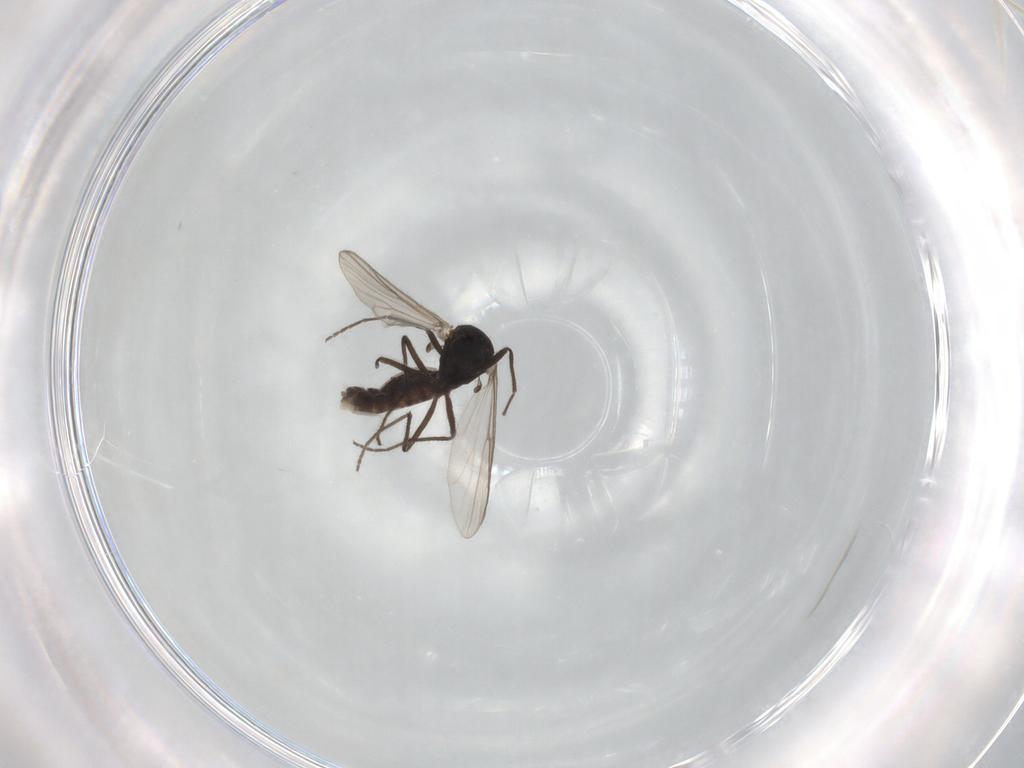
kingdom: Animalia
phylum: Arthropoda
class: Insecta
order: Diptera
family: Chironomidae
